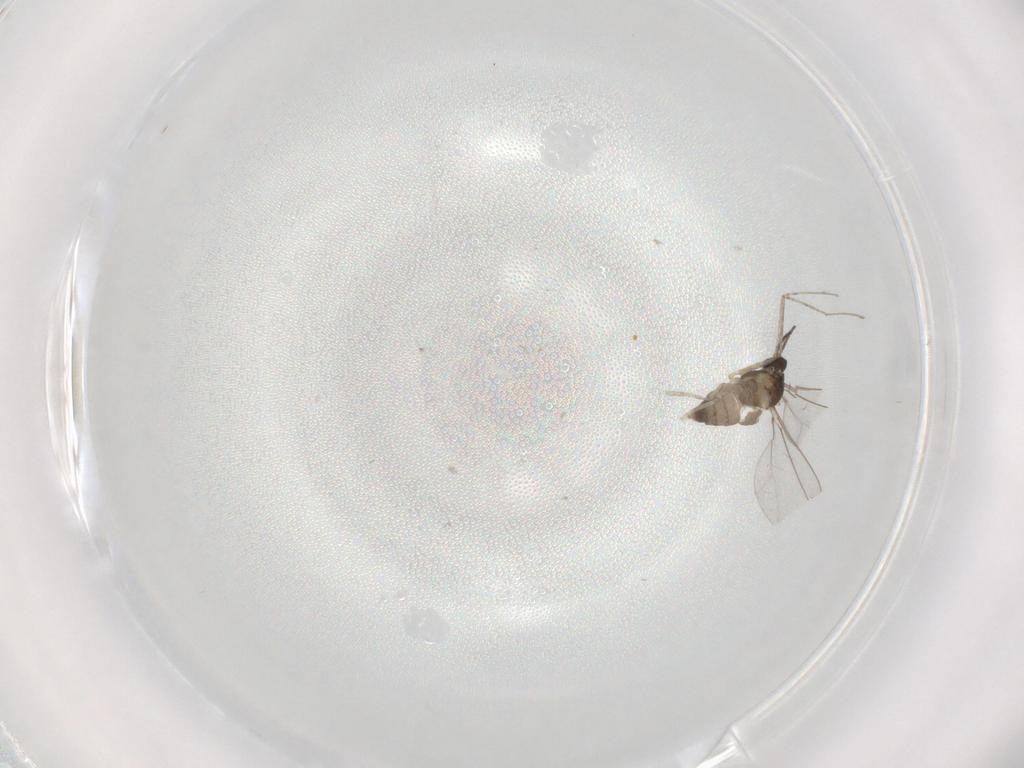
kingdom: Animalia
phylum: Arthropoda
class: Insecta
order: Diptera
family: Cecidomyiidae
